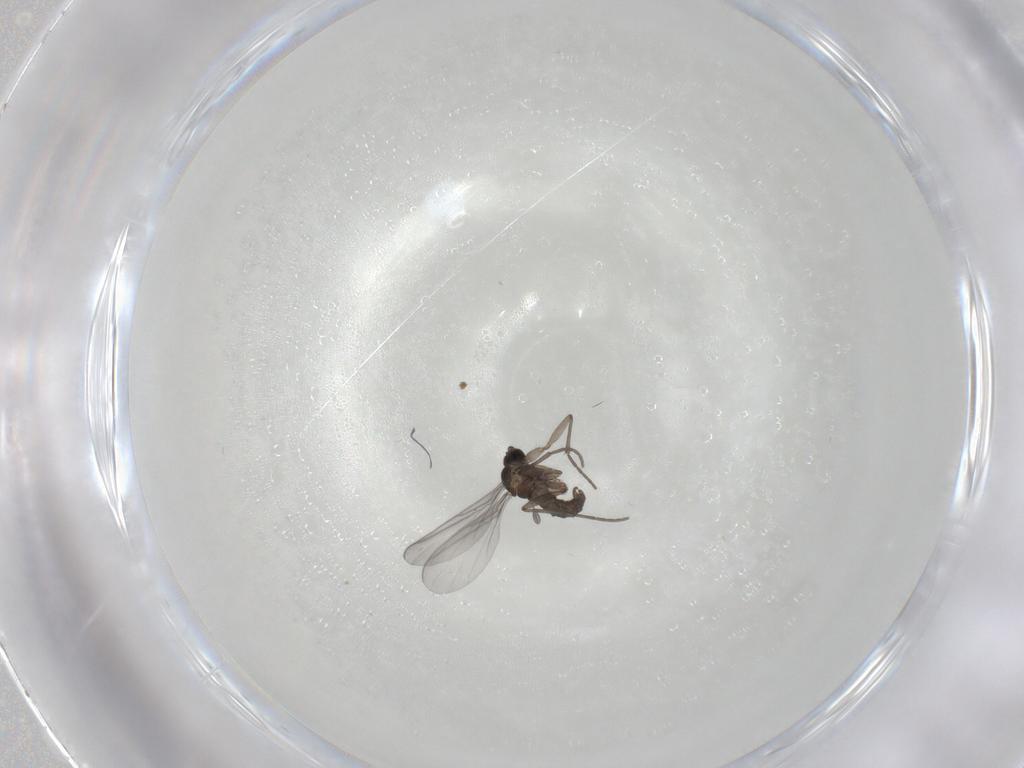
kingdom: Animalia
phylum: Arthropoda
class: Insecta
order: Diptera
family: Sciaridae
